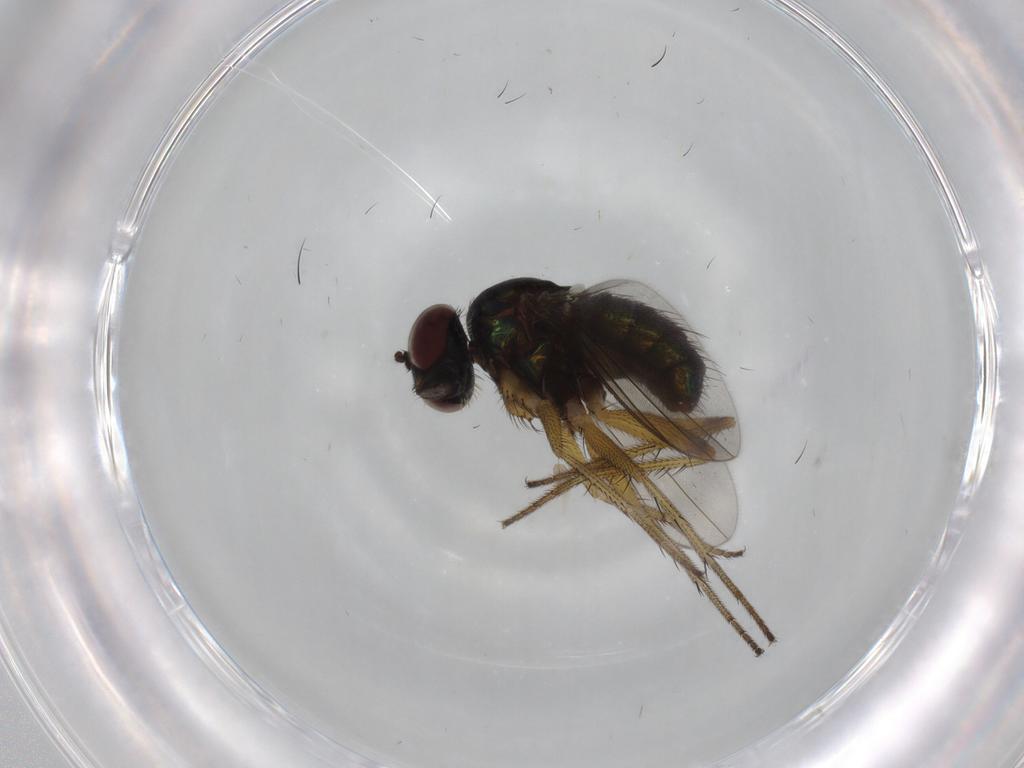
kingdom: Animalia
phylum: Arthropoda
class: Insecta
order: Diptera
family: Dolichopodidae
